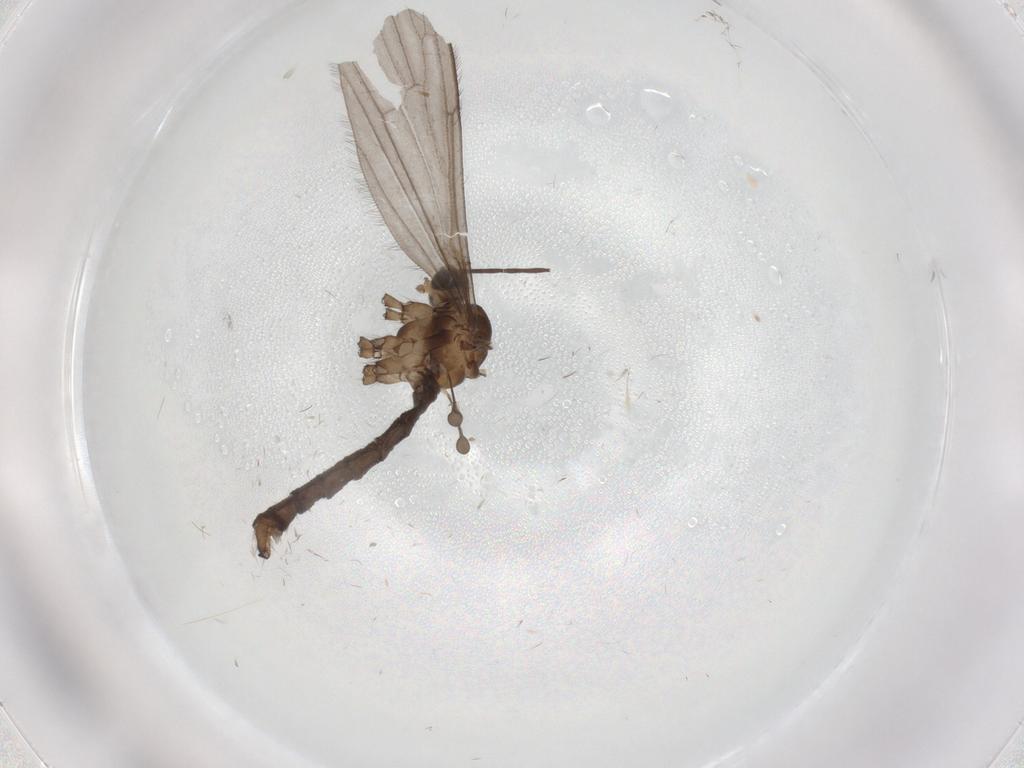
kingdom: Animalia
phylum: Arthropoda
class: Insecta
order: Diptera
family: Limoniidae
